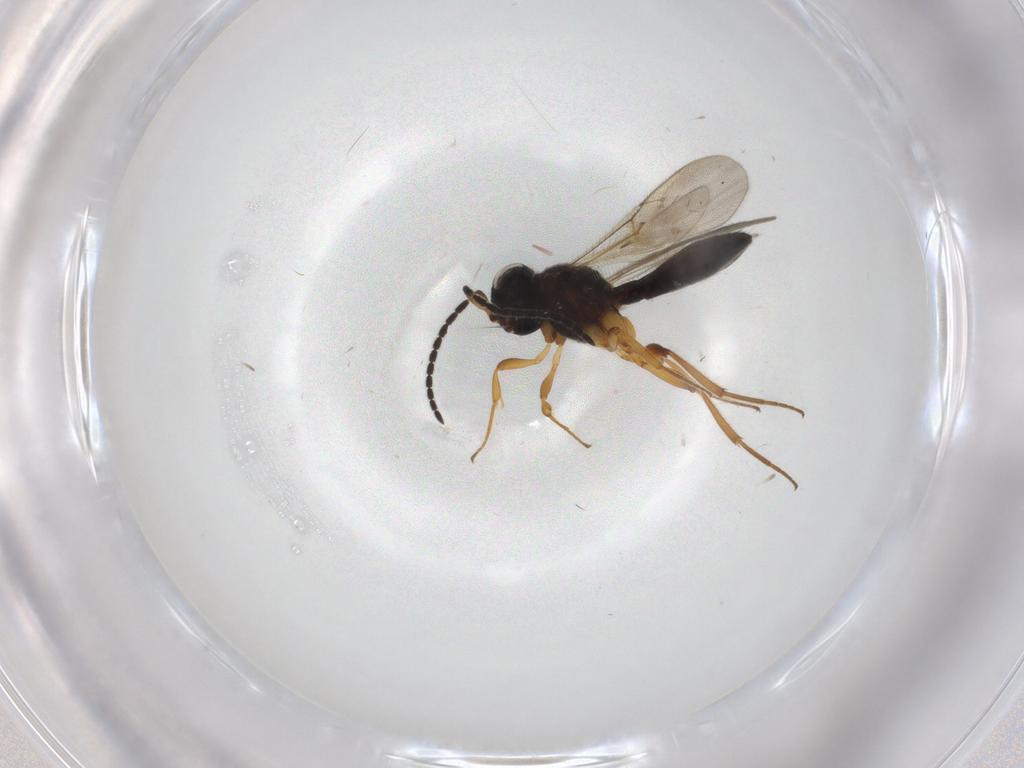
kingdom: Animalia
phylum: Arthropoda
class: Insecta
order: Hymenoptera
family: Scelionidae
